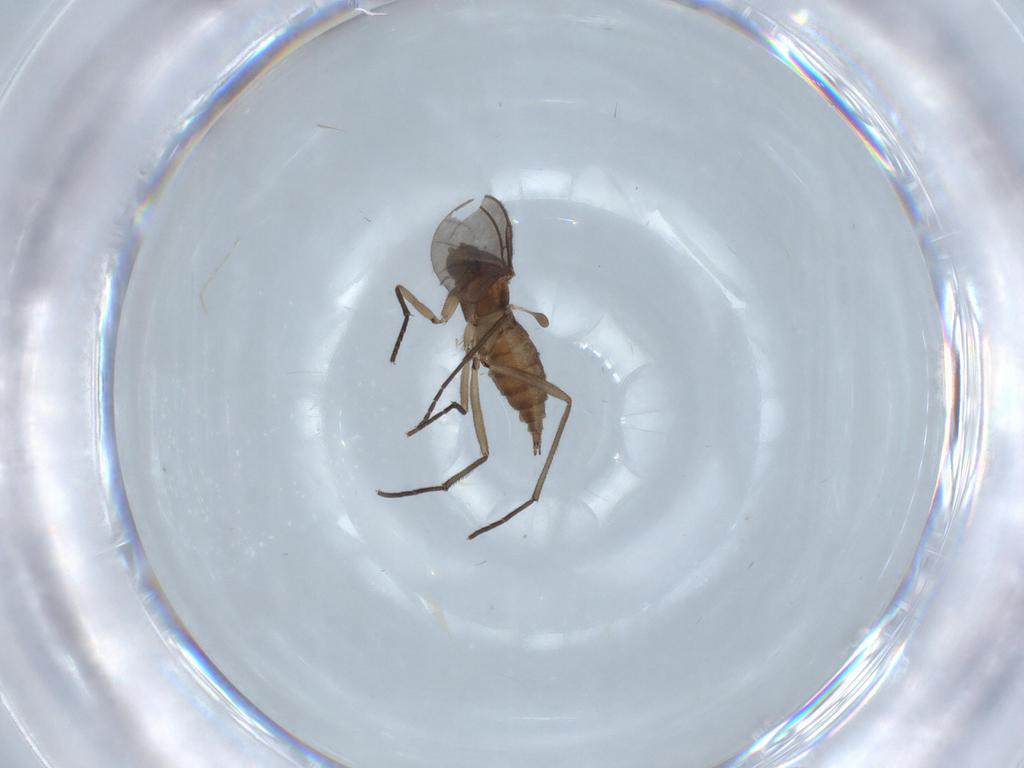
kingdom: Animalia
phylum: Arthropoda
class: Insecta
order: Diptera
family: Sciaridae
